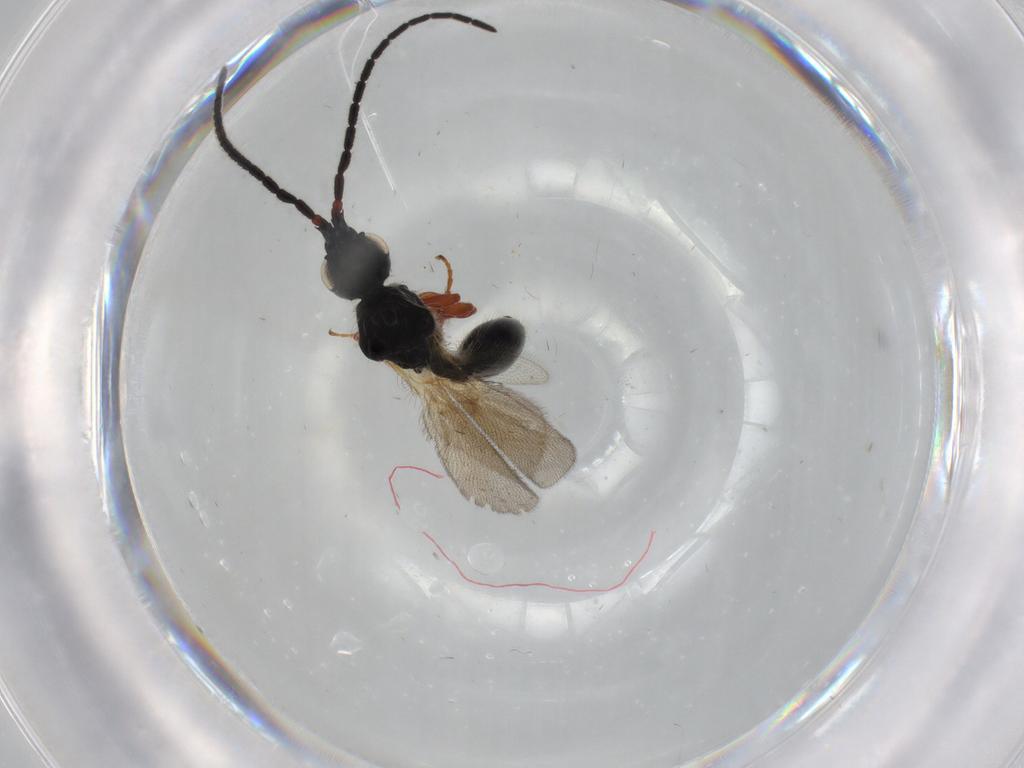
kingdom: Animalia
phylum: Arthropoda
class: Insecta
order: Hymenoptera
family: Diapriidae
